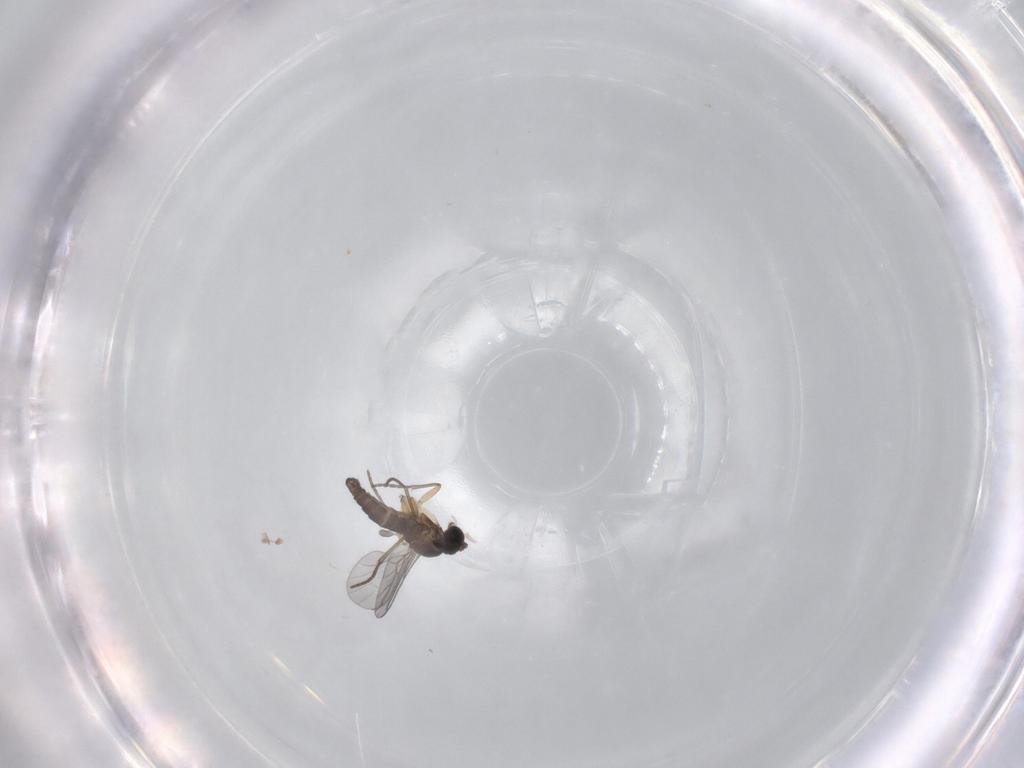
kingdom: Animalia
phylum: Arthropoda
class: Insecta
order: Diptera
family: Sciaridae
